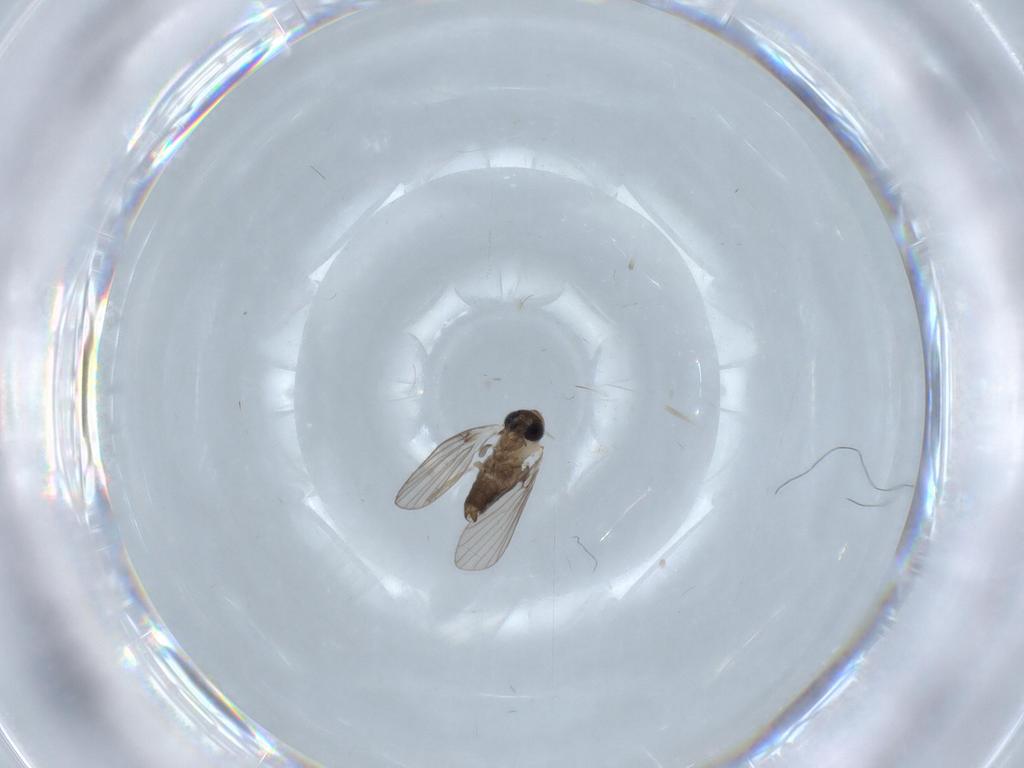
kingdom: Animalia
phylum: Arthropoda
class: Insecta
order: Diptera
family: Psychodidae
